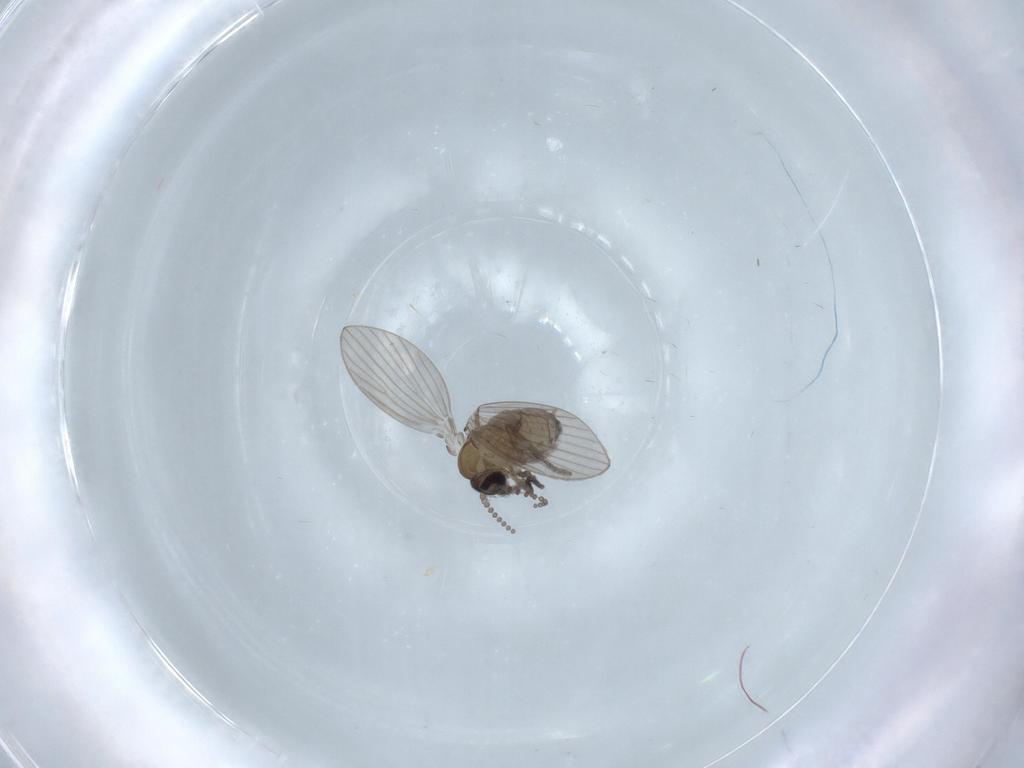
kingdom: Animalia
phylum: Arthropoda
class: Insecta
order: Diptera
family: Psychodidae
